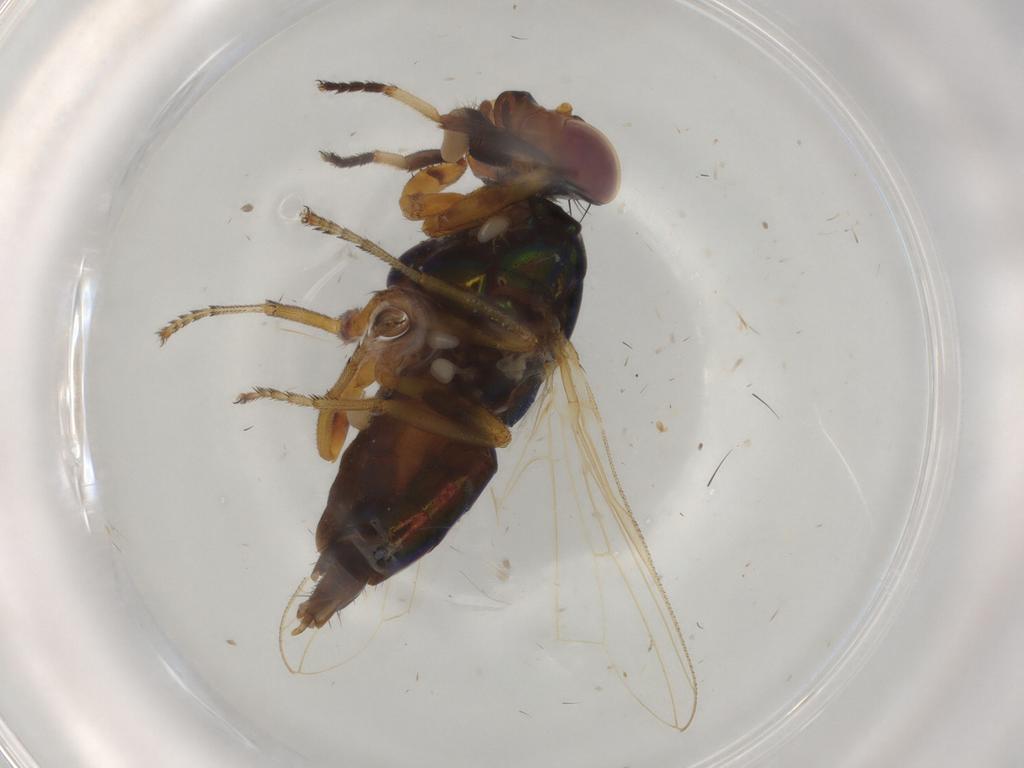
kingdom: Animalia
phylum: Arthropoda
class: Insecta
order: Diptera
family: Ulidiidae
